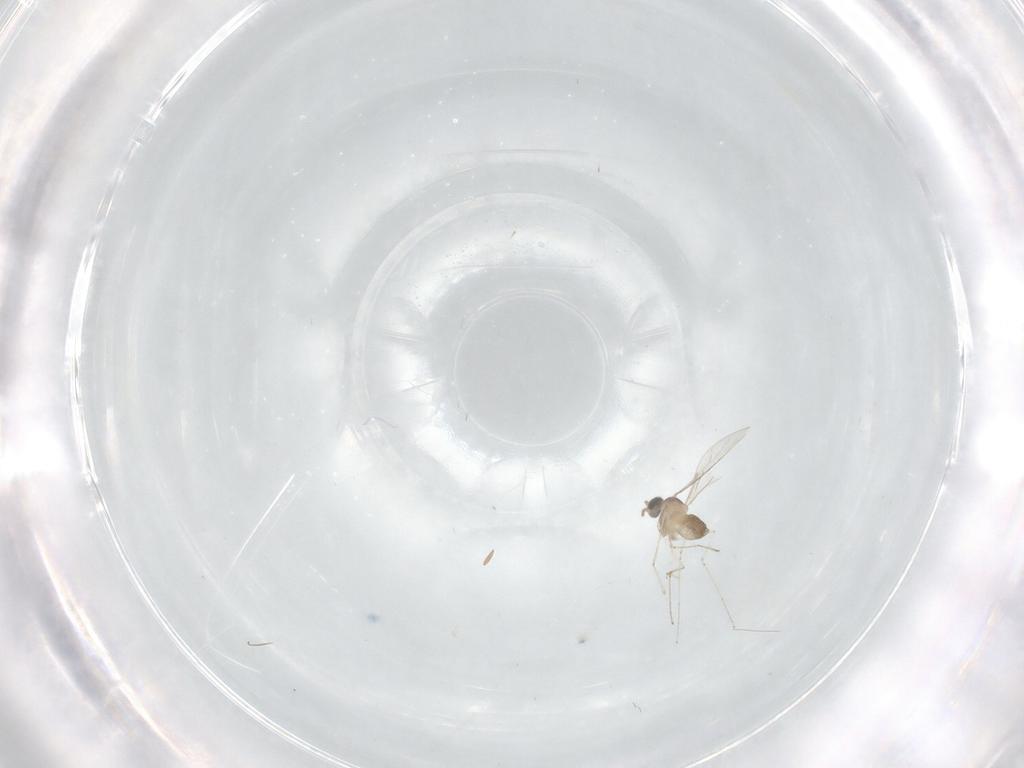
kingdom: Animalia
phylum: Arthropoda
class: Insecta
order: Diptera
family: Cecidomyiidae
